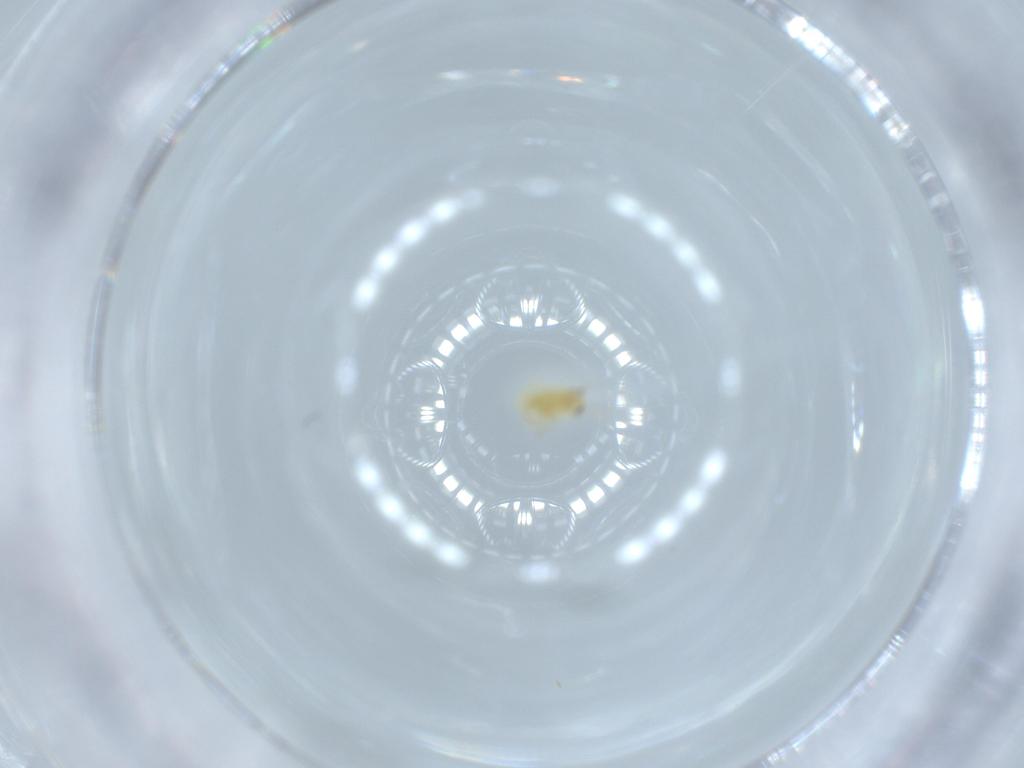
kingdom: Animalia
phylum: Arthropoda
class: Insecta
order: Hemiptera
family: Coccoidea_incertae_sedis
